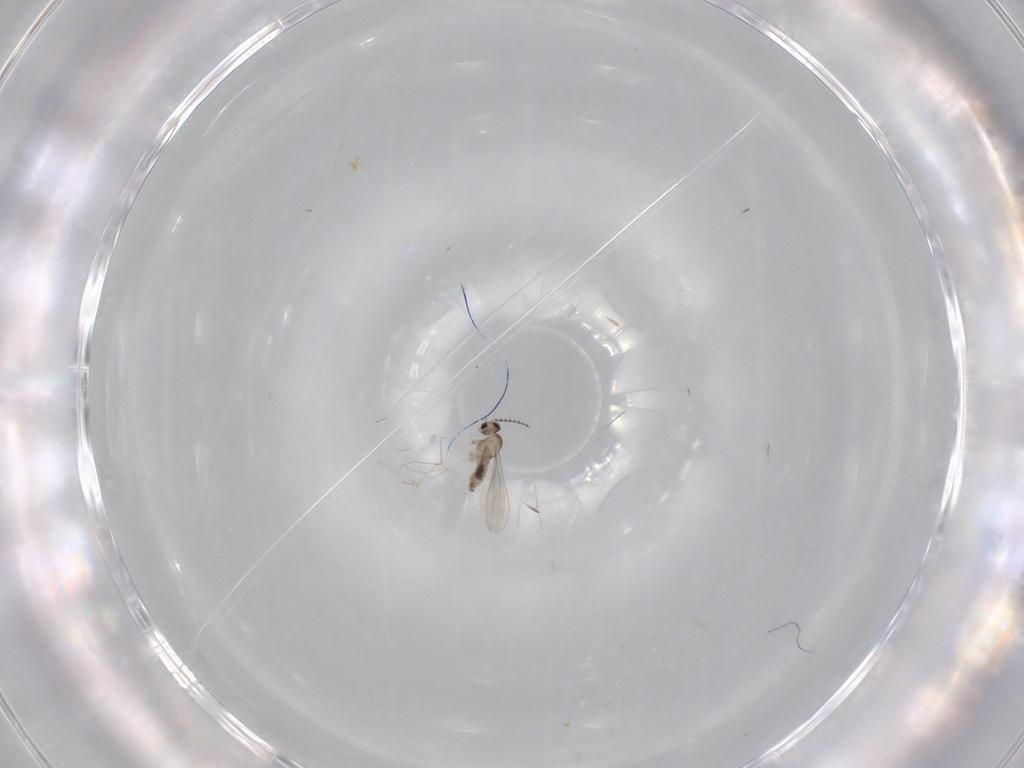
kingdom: Animalia
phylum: Arthropoda
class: Insecta
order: Diptera
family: Cecidomyiidae
